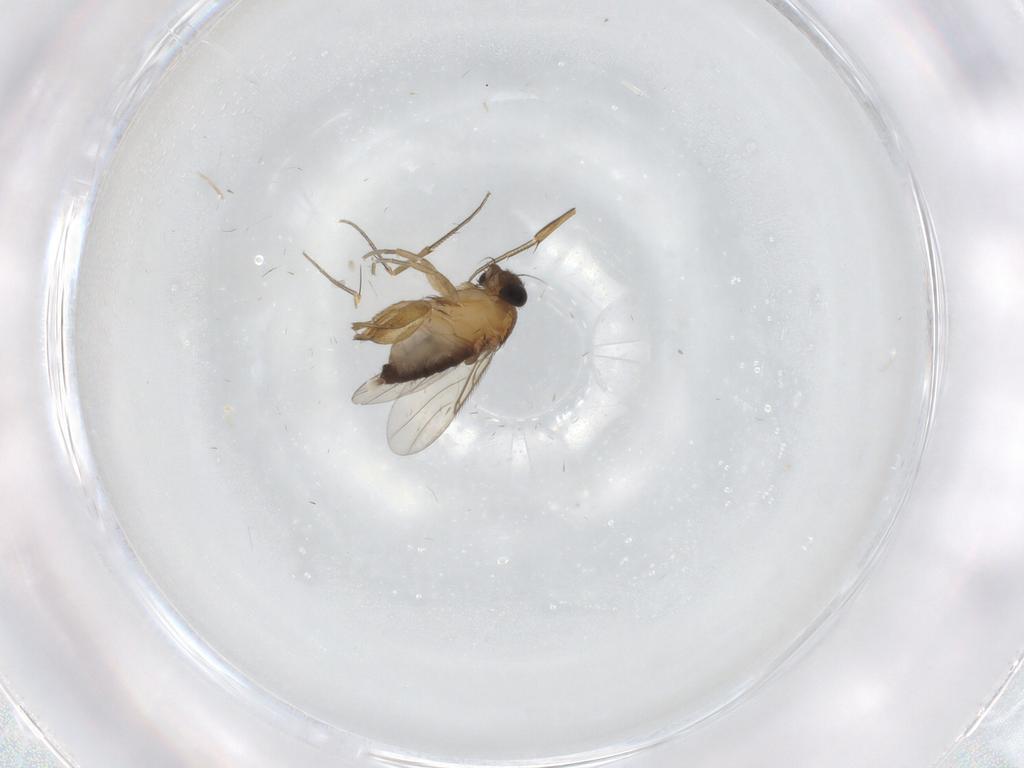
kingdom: Animalia
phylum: Arthropoda
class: Insecta
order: Diptera
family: Phoridae
